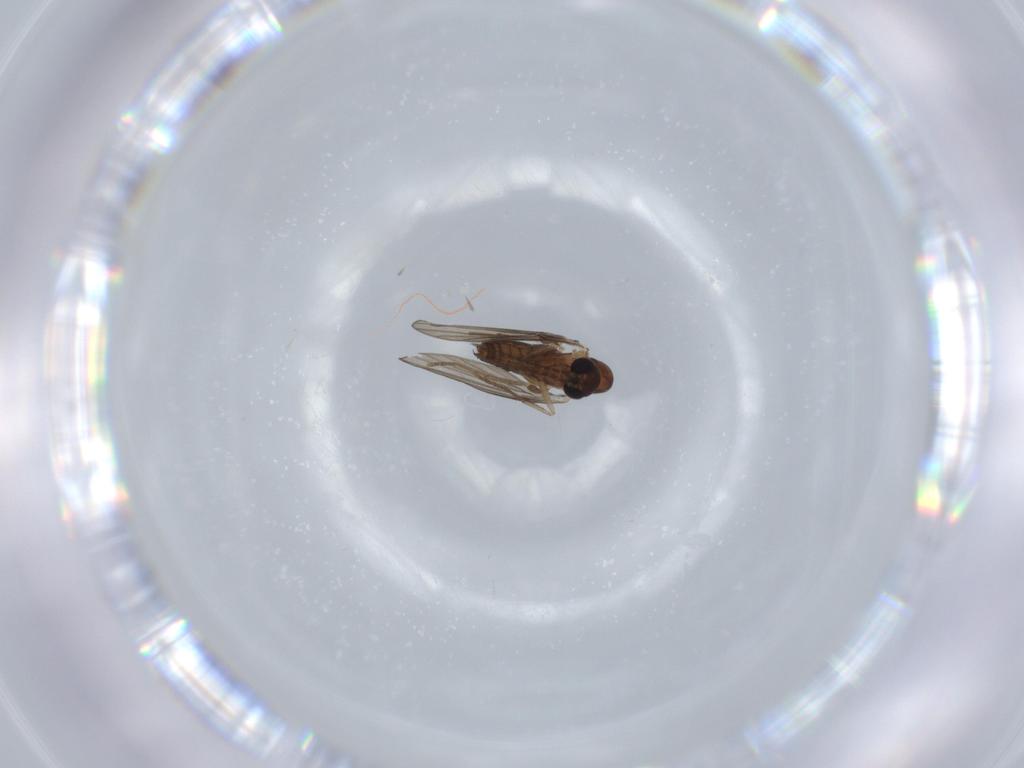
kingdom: Animalia
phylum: Arthropoda
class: Insecta
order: Diptera
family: Psychodidae
